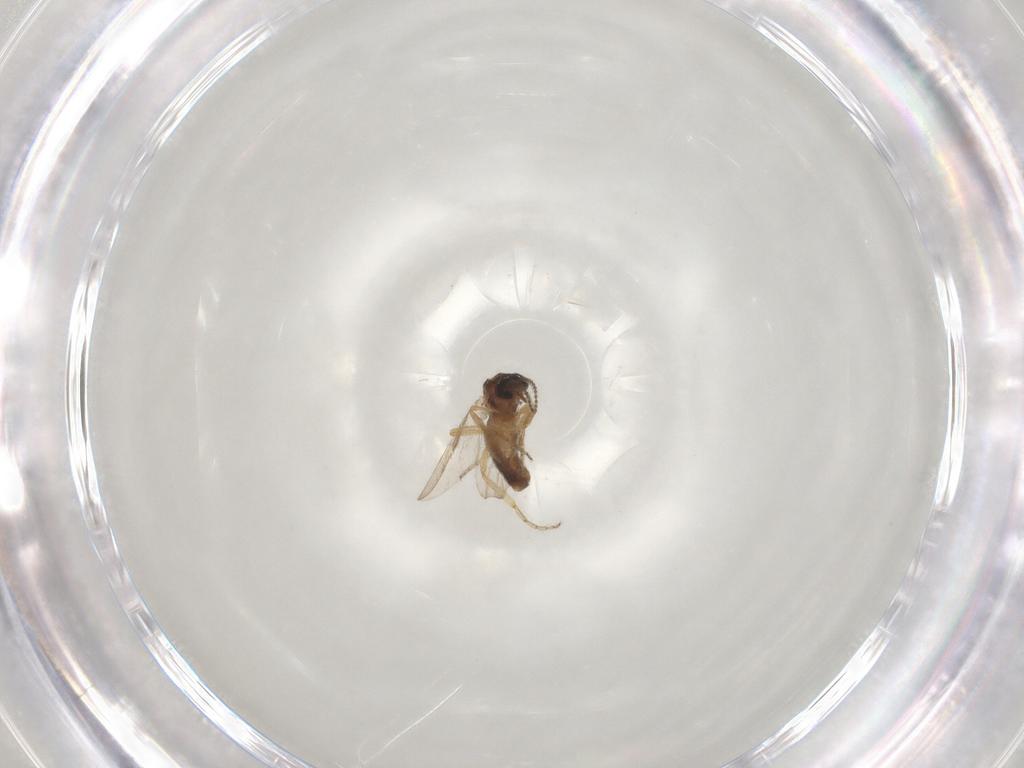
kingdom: Animalia
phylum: Arthropoda
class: Insecta
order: Diptera
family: Ceratopogonidae
